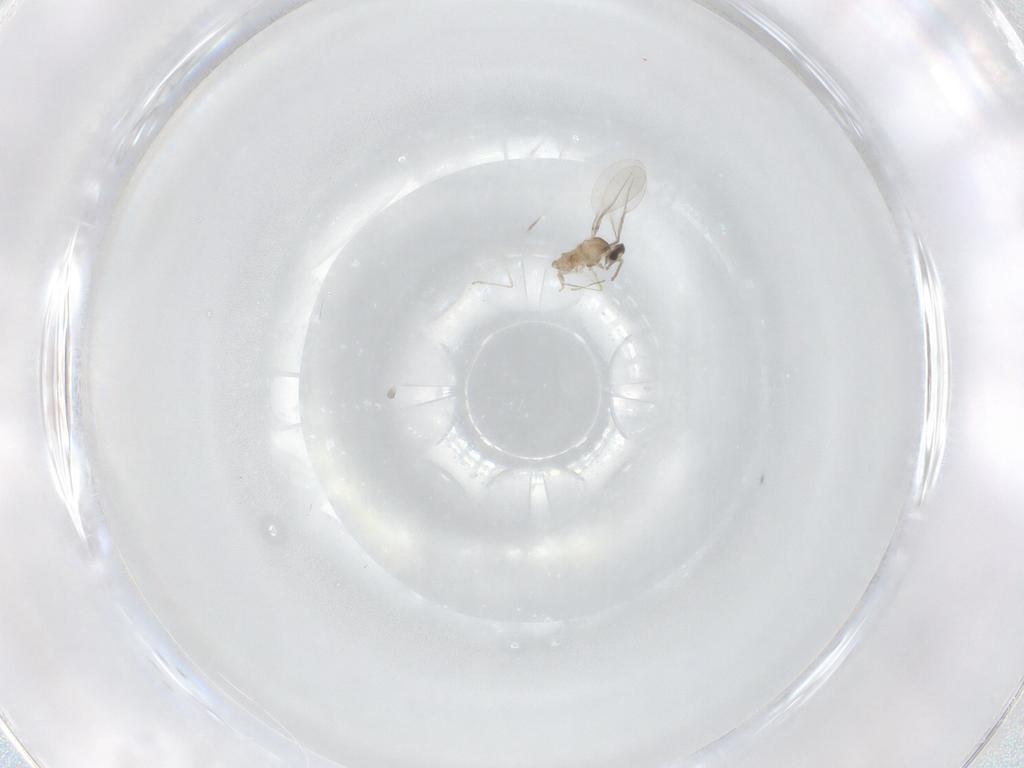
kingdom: Animalia
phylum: Arthropoda
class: Insecta
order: Diptera
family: Cecidomyiidae
